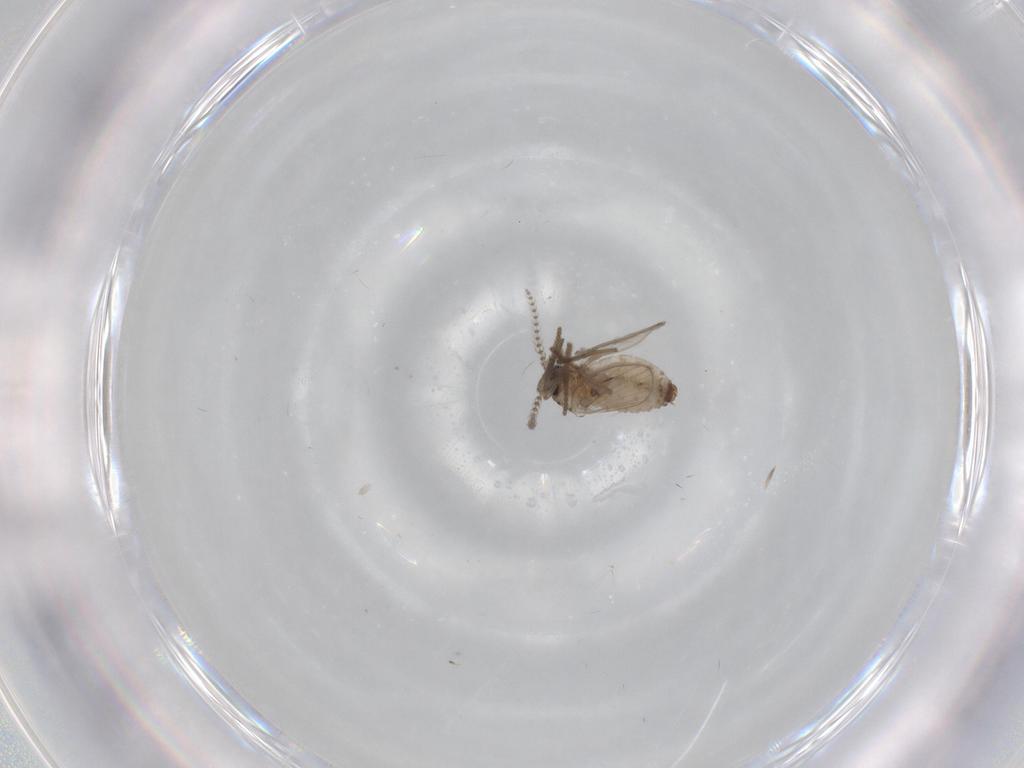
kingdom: Animalia
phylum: Arthropoda
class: Insecta
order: Diptera
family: Psychodidae
